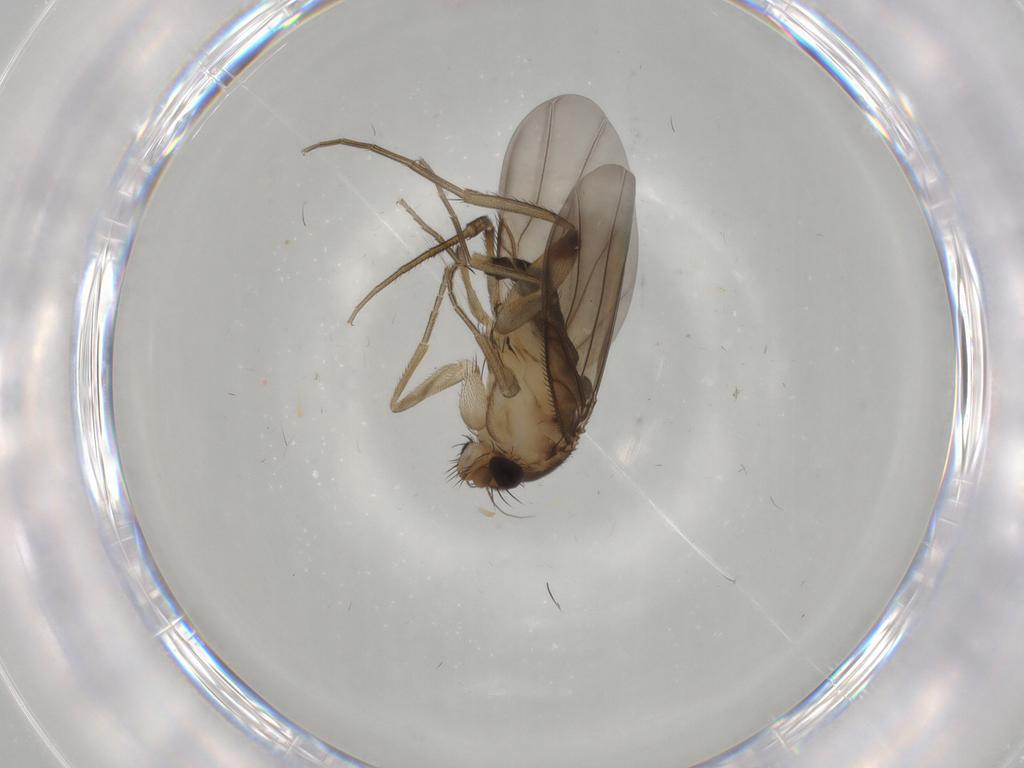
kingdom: Animalia
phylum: Arthropoda
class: Insecta
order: Diptera
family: Phoridae
